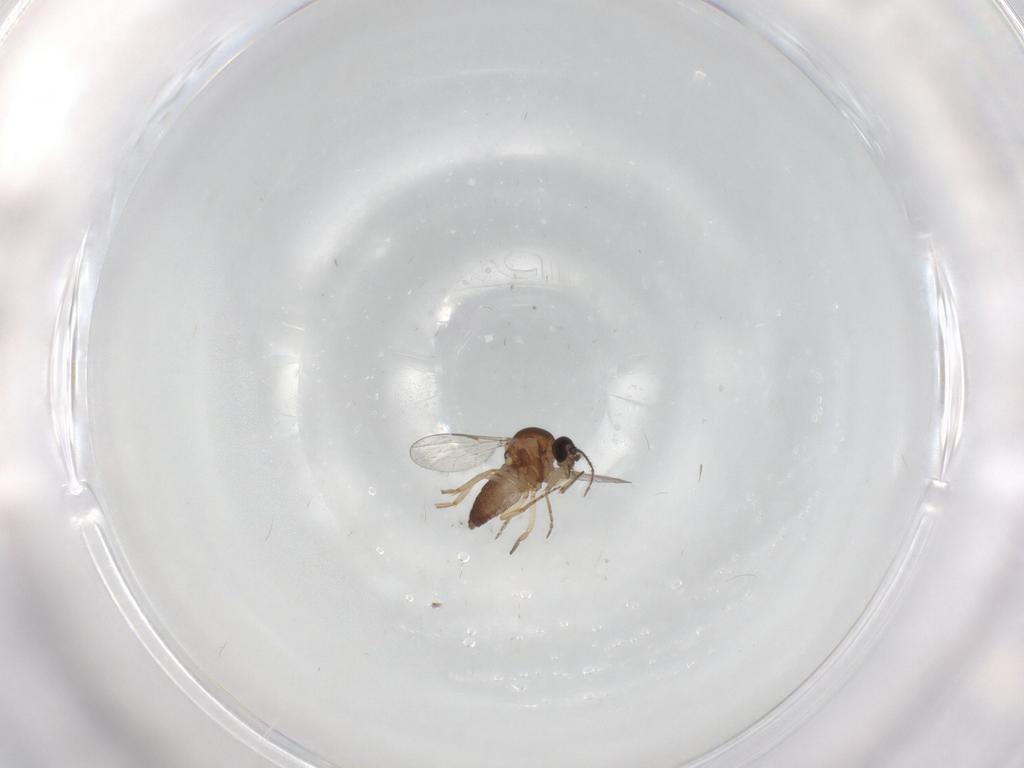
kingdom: Animalia
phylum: Arthropoda
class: Insecta
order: Diptera
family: Ceratopogonidae
